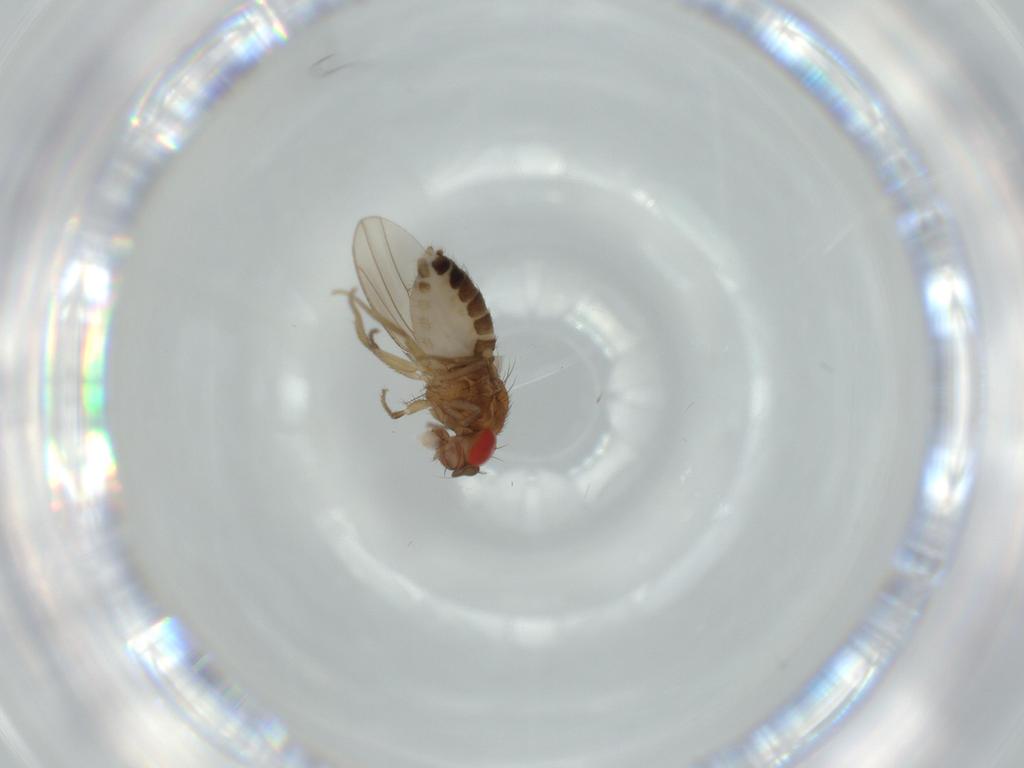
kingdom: Animalia
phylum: Arthropoda
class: Insecta
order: Diptera
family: Drosophilidae
